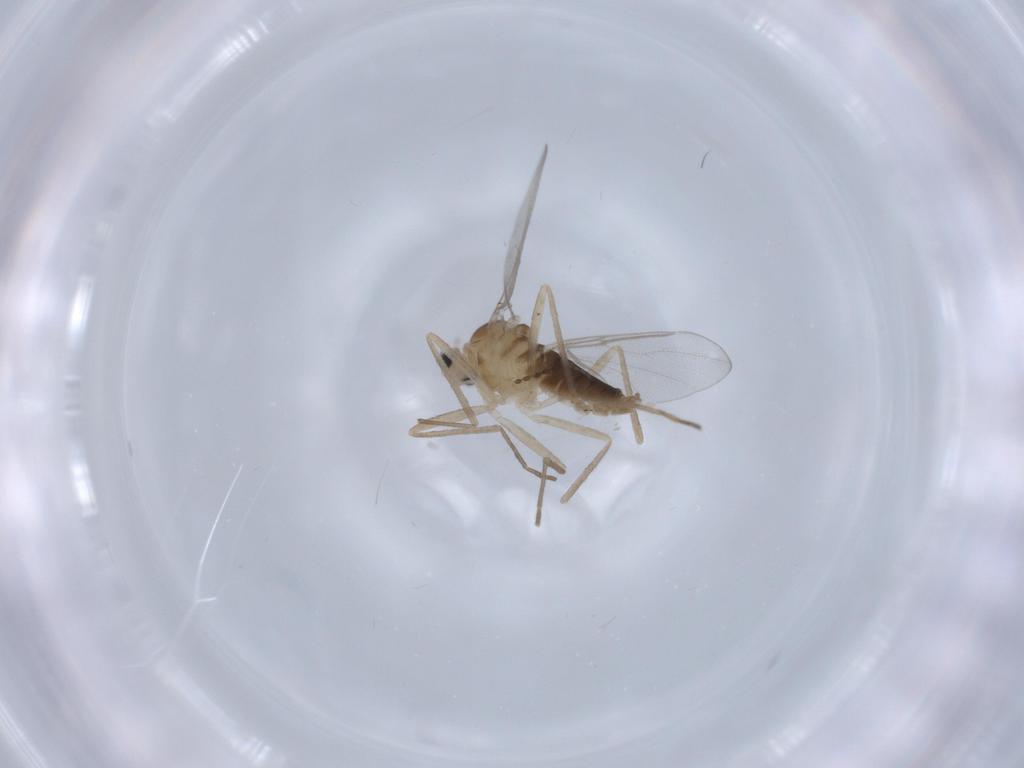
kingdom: Animalia
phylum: Arthropoda
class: Insecta
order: Diptera
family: Cecidomyiidae
